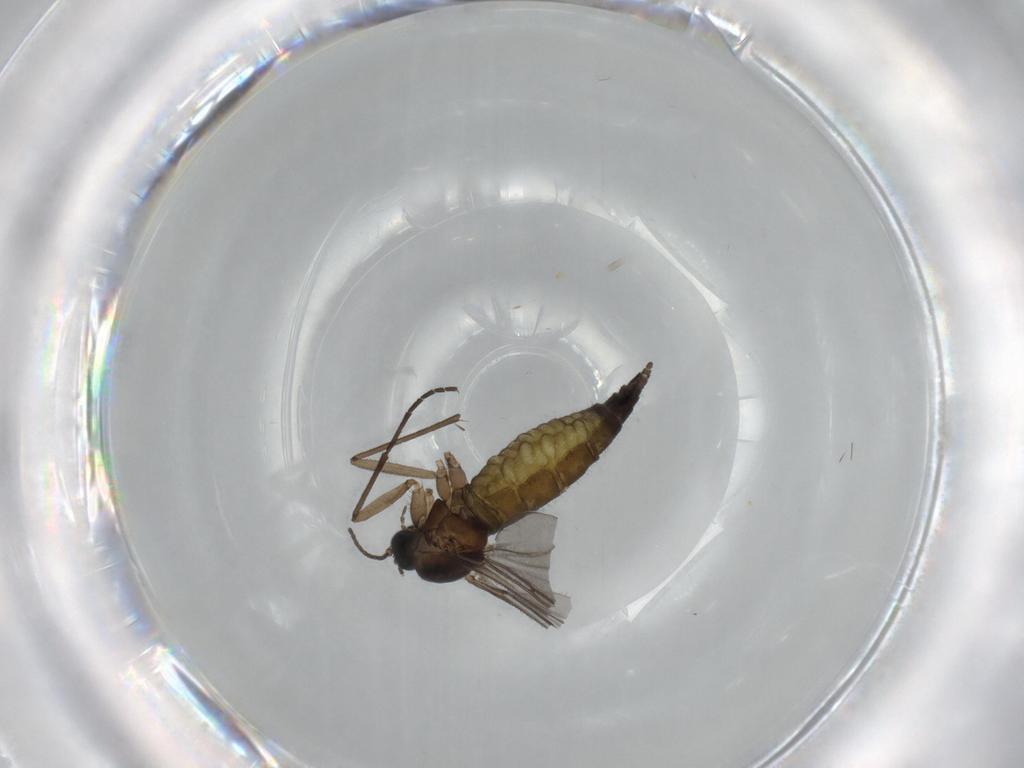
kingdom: Animalia
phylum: Arthropoda
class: Insecta
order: Diptera
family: Sciaridae
